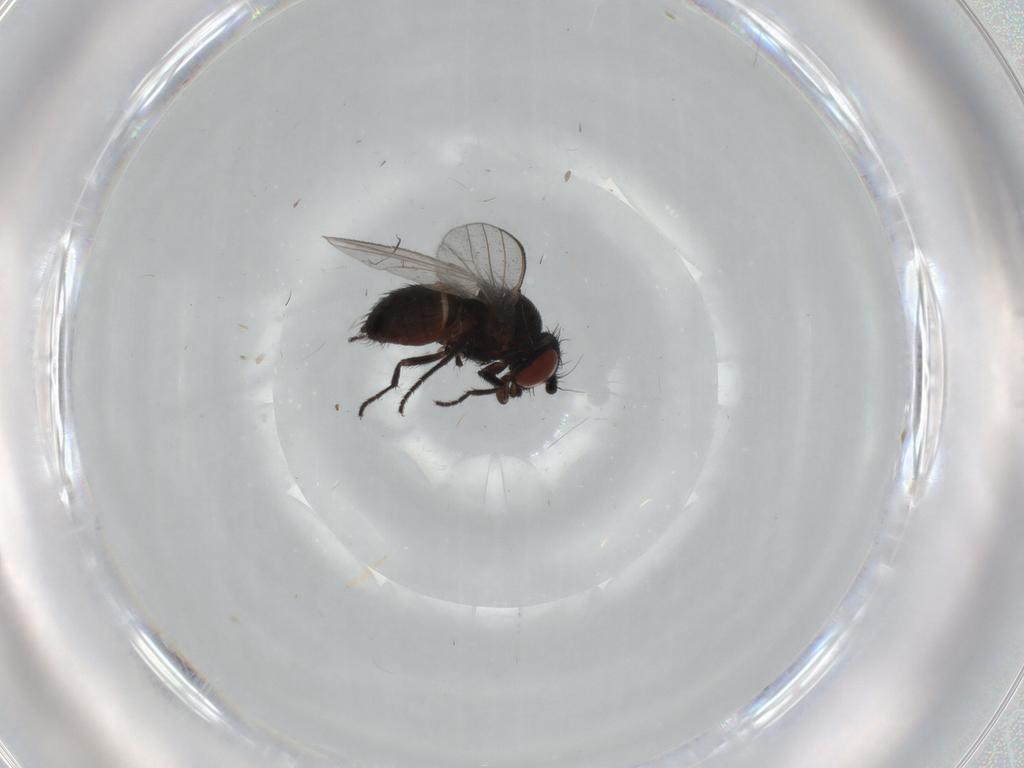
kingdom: Animalia
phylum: Arthropoda
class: Insecta
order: Diptera
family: Milichiidae
